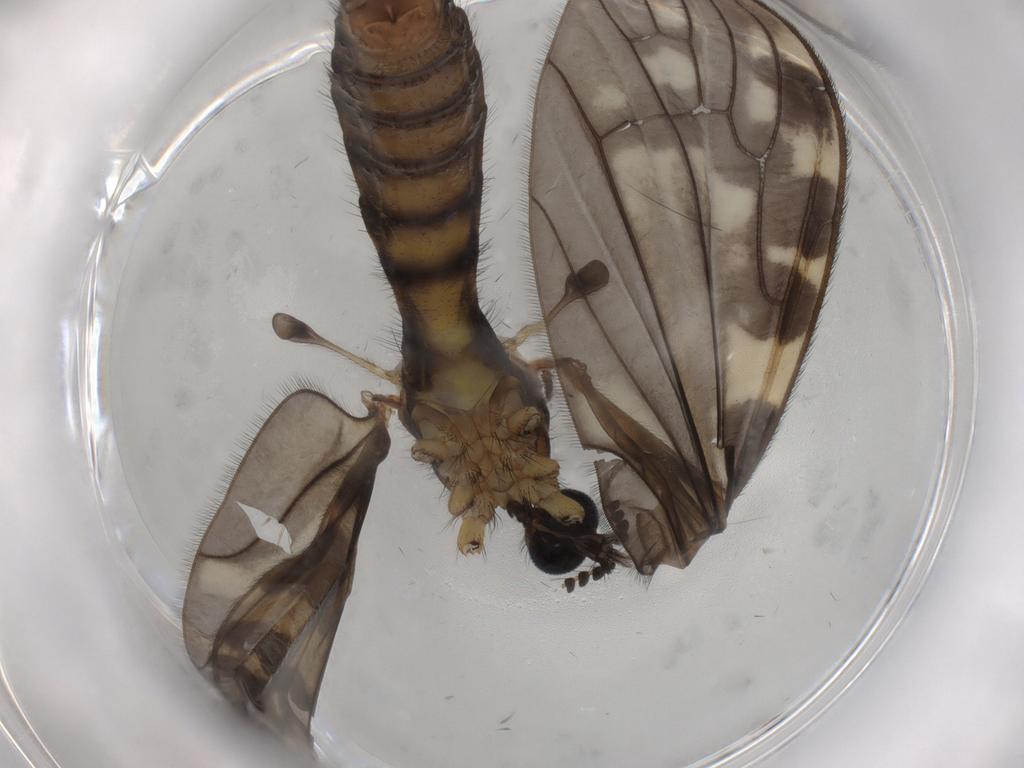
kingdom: Animalia
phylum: Arthropoda
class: Insecta
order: Diptera
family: Limoniidae
